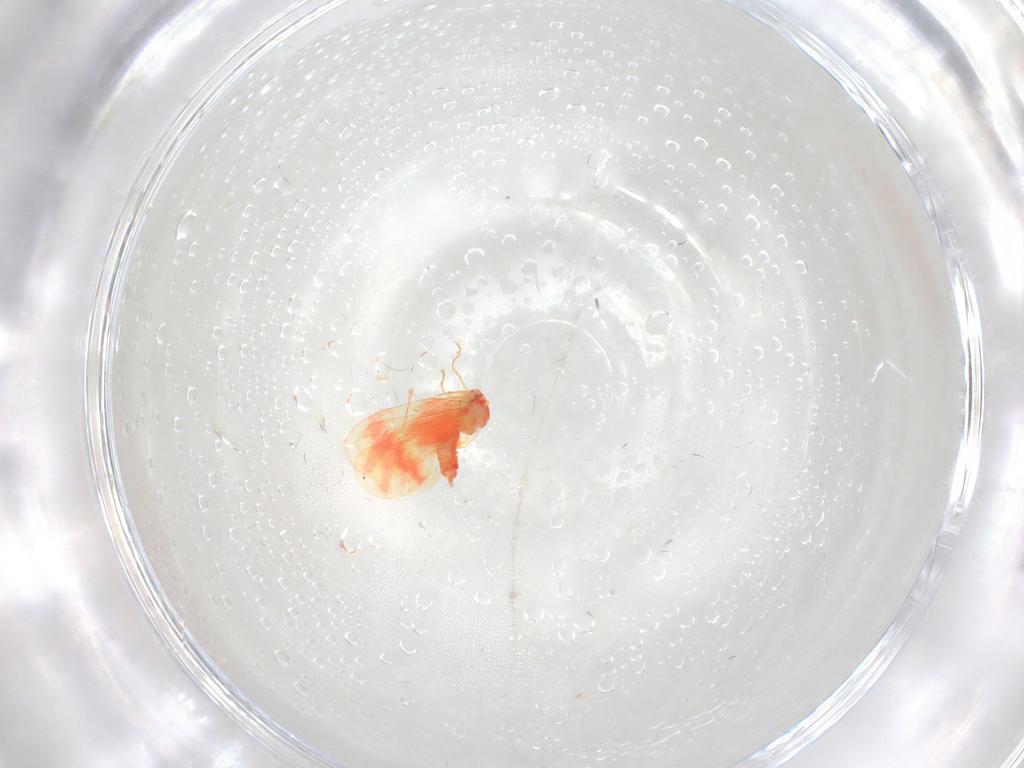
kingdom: Animalia
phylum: Arthropoda
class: Insecta
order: Hemiptera
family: Aleyrodidae
